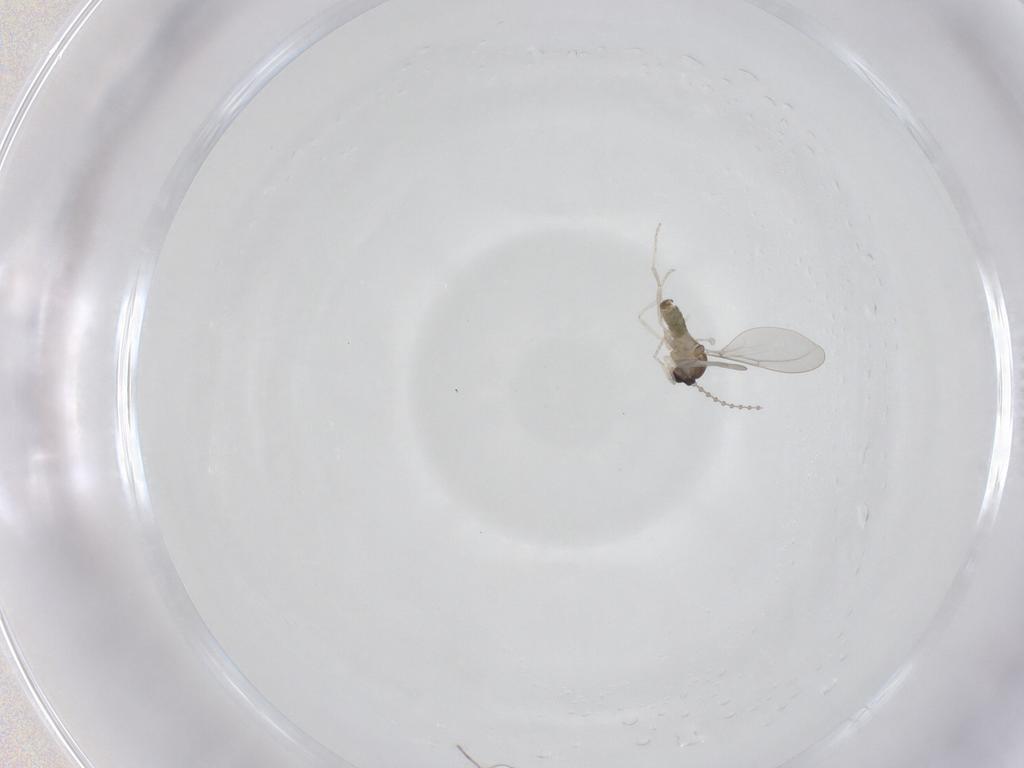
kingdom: Animalia
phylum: Arthropoda
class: Insecta
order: Diptera
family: Cecidomyiidae
